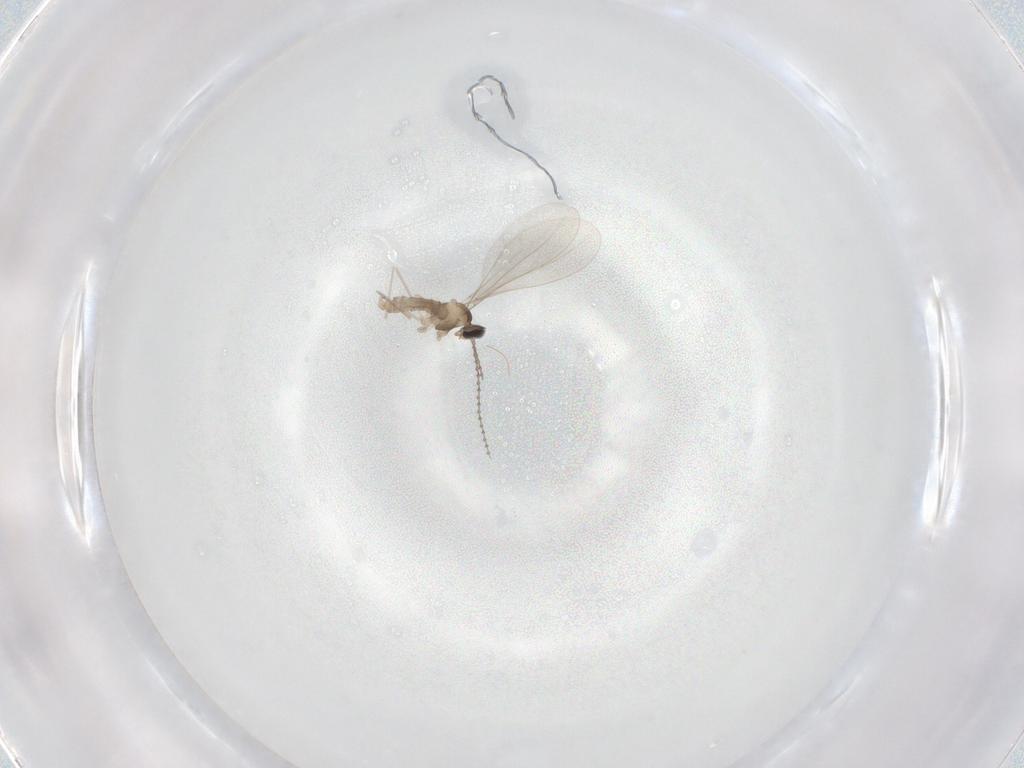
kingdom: Animalia
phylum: Arthropoda
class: Insecta
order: Diptera
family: Cecidomyiidae
